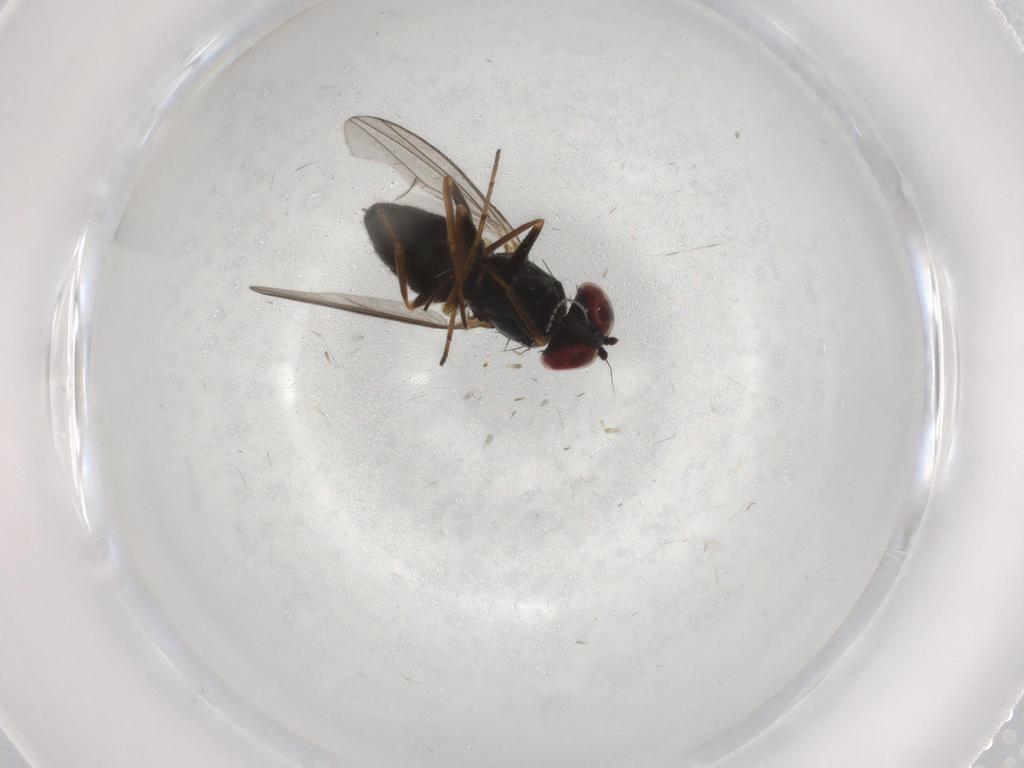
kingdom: Animalia
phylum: Arthropoda
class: Insecta
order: Diptera
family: Dolichopodidae
